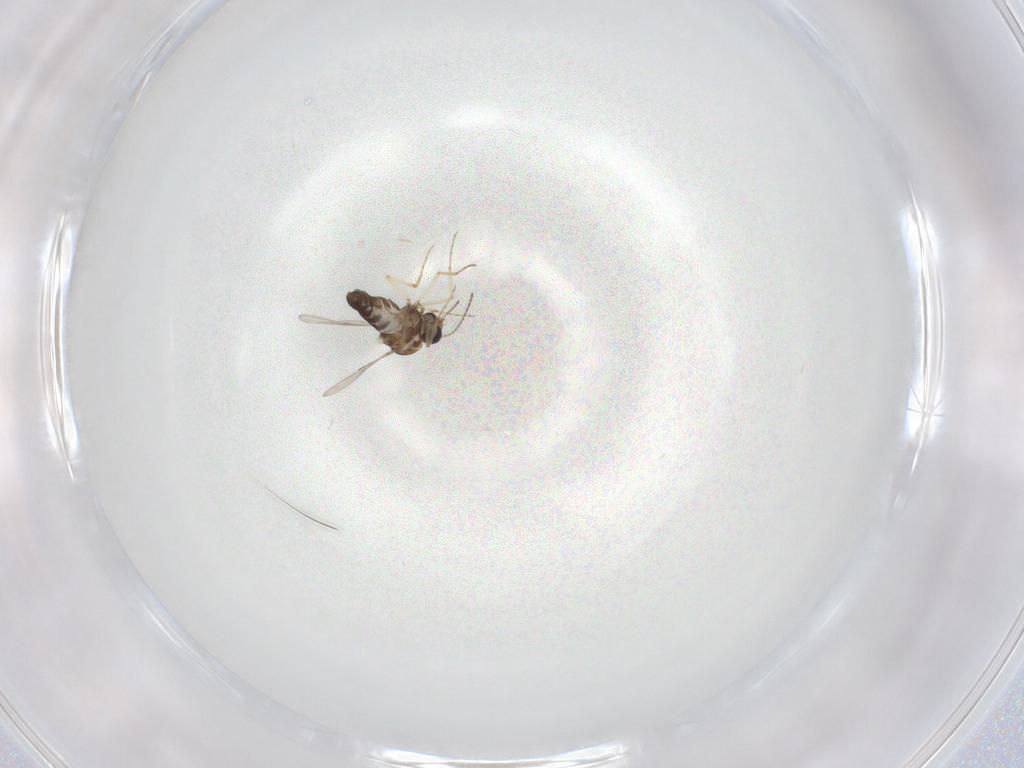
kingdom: Animalia
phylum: Arthropoda
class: Insecta
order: Diptera
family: Ceratopogonidae
